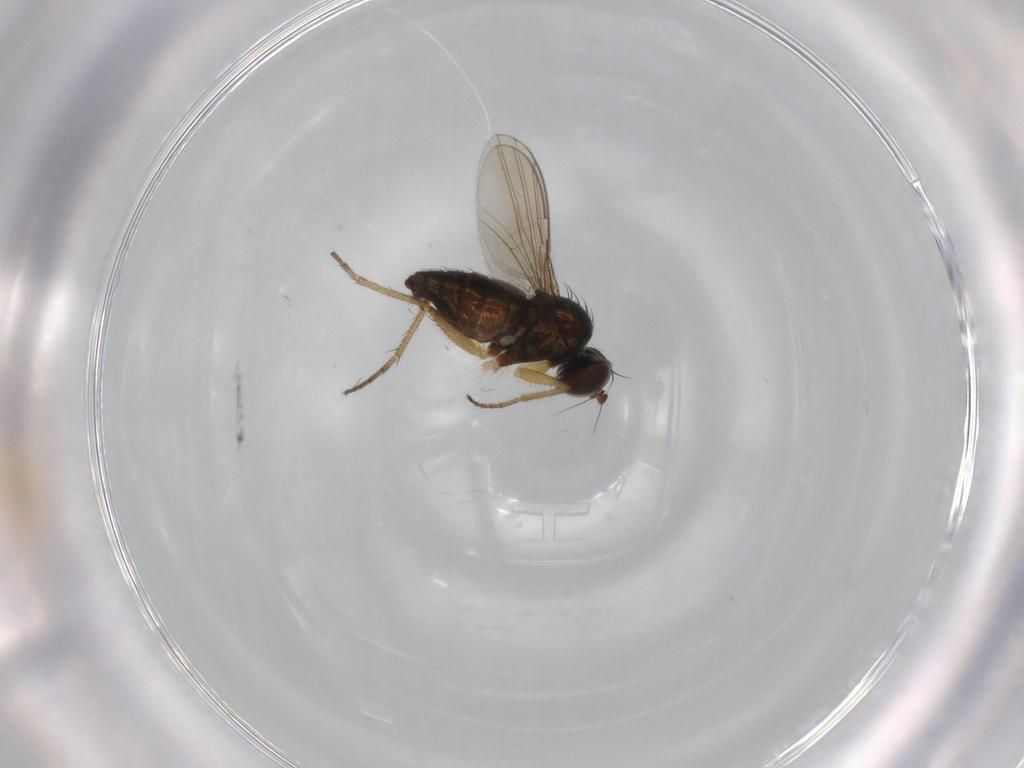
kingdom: Animalia
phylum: Arthropoda
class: Insecta
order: Diptera
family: Dolichopodidae
